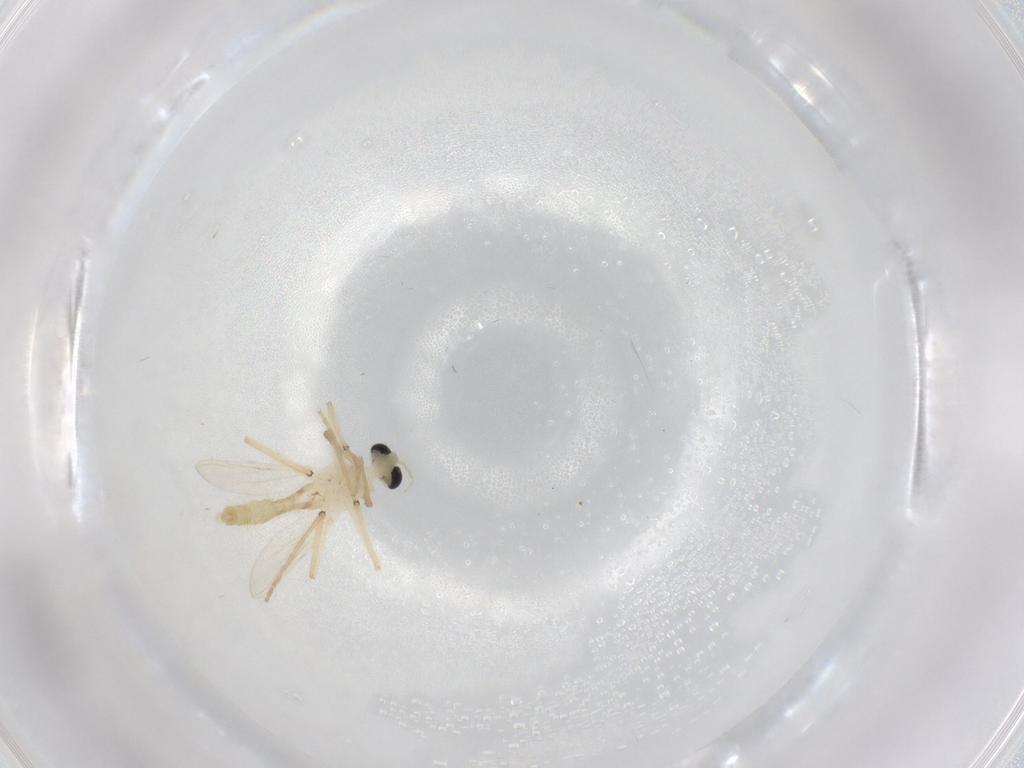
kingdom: Animalia
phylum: Arthropoda
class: Insecta
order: Diptera
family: Chironomidae
